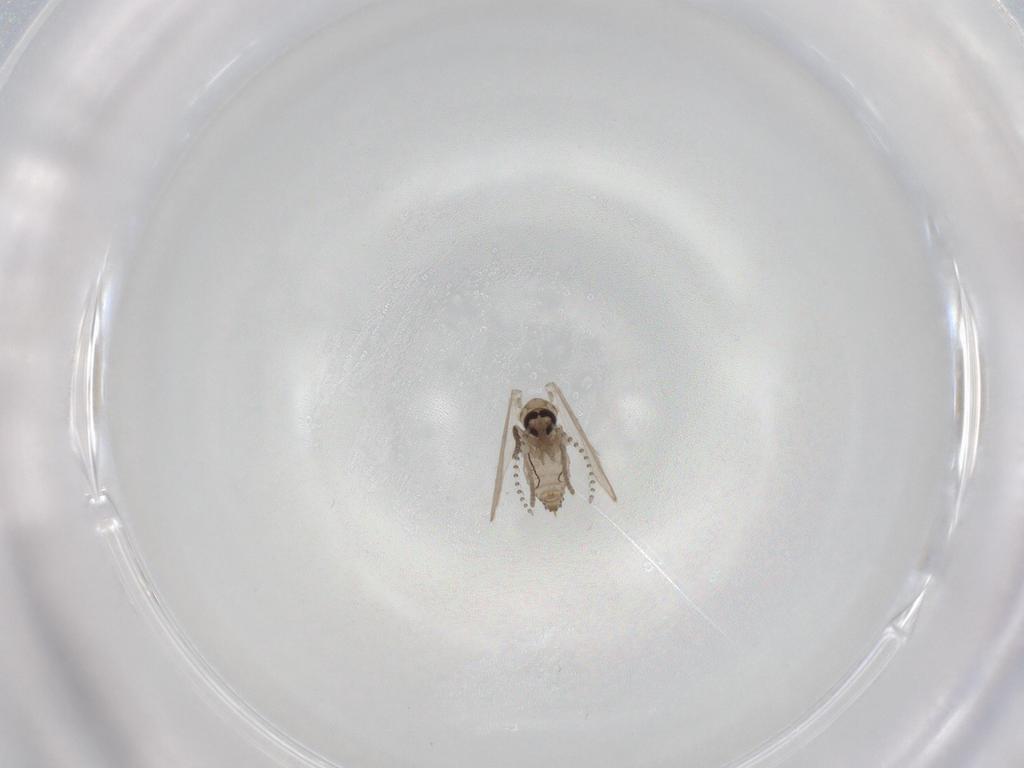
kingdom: Animalia
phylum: Arthropoda
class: Insecta
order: Diptera
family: Psychodidae
